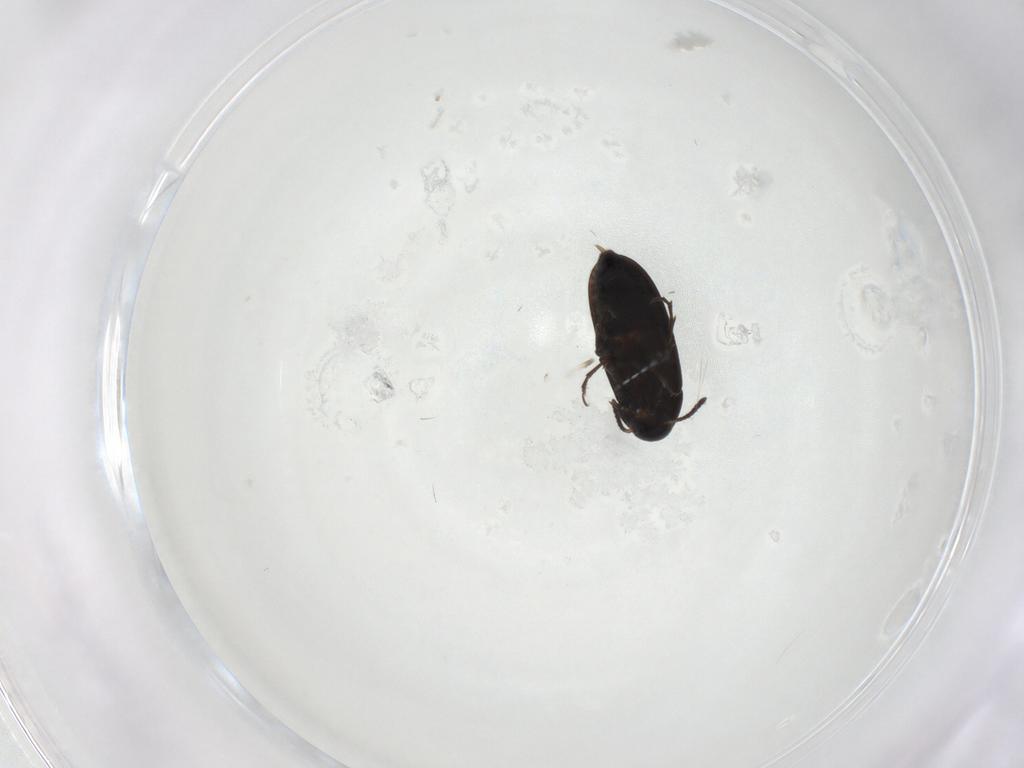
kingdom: Animalia
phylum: Arthropoda
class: Insecta
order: Coleoptera
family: Scraptiidae
